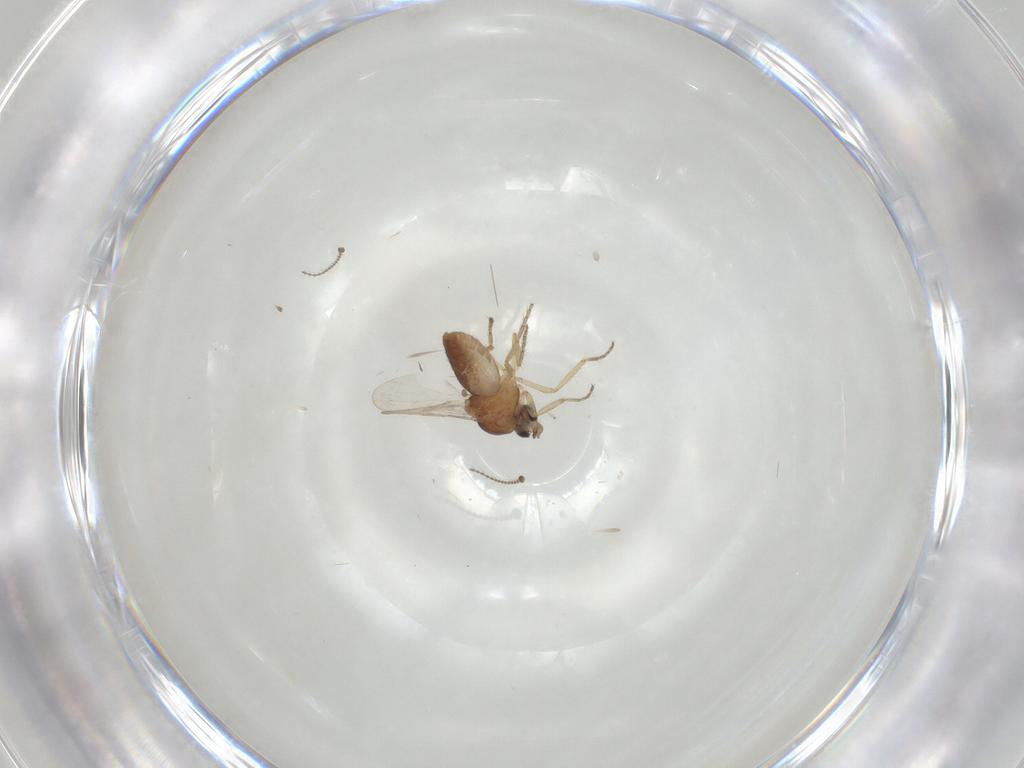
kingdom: Animalia
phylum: Arthropoda
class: Insecta
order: Diptera
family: Ceratopogonidae
